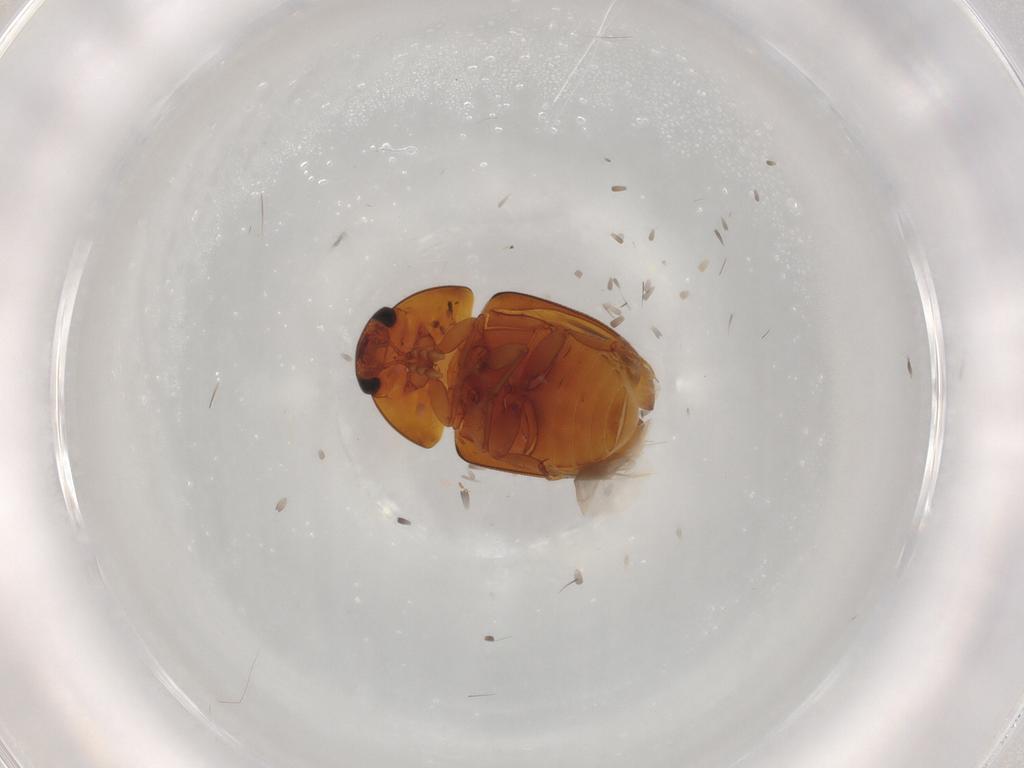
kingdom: Animalia
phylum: Arthropoda
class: Insecta
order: Coleoptera
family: Phalacridae
